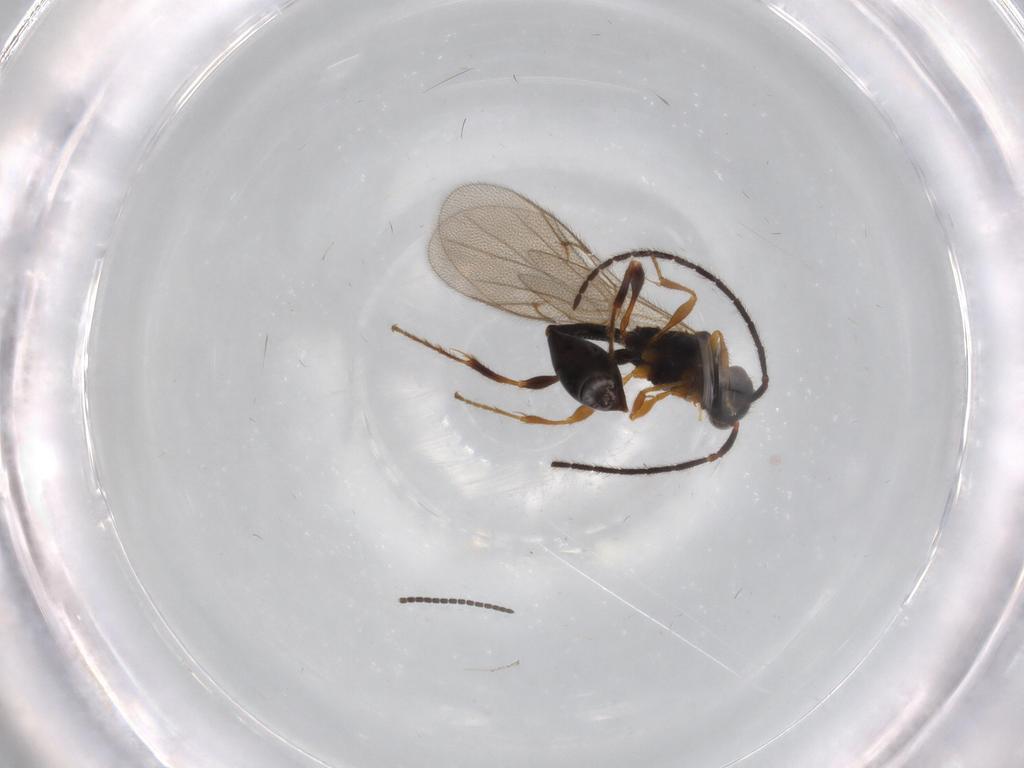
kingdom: Animalia
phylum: Arthropoda
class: Insecta
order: Hymenoptera
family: Diapriidae
